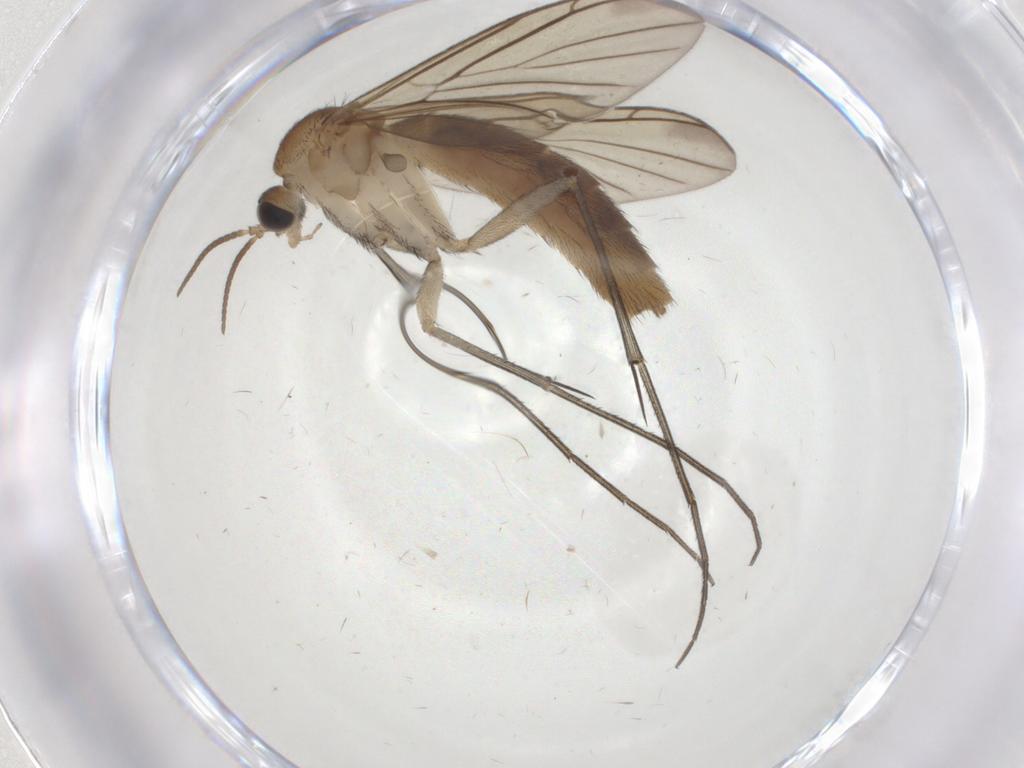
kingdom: Animalia
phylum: Arthropoda
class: Insecta
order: Diptera
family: Keroplatidae
